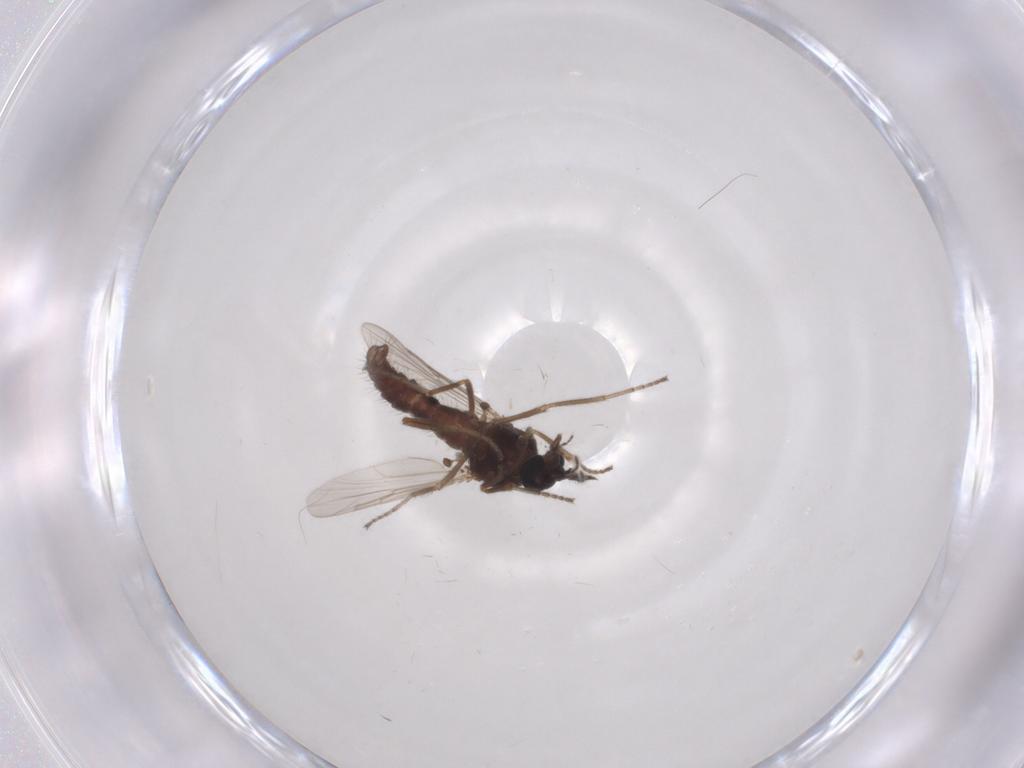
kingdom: Animalia
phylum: Arthropoda
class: Insecta
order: Diptera
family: Ceratopogonidae
